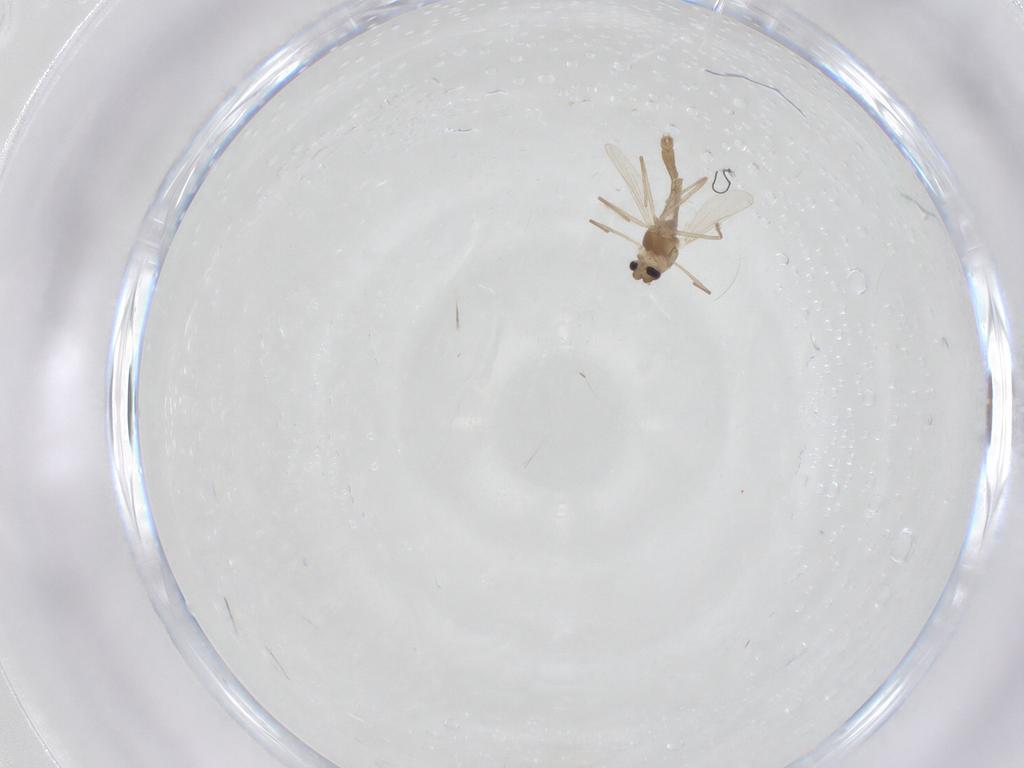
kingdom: Animalia
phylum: Arthropoda
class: Insecta
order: Diptera
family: Chironomidae
